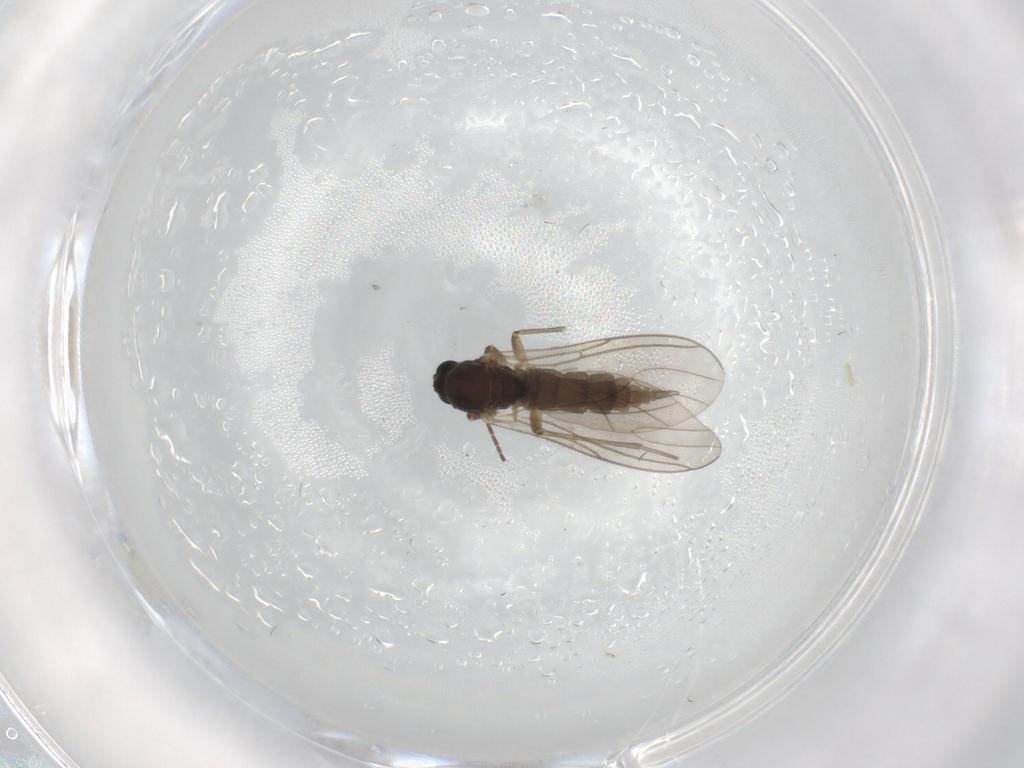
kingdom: Animalia
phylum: Arthropoda
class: Insecta
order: Diptera
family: Sciaridae
